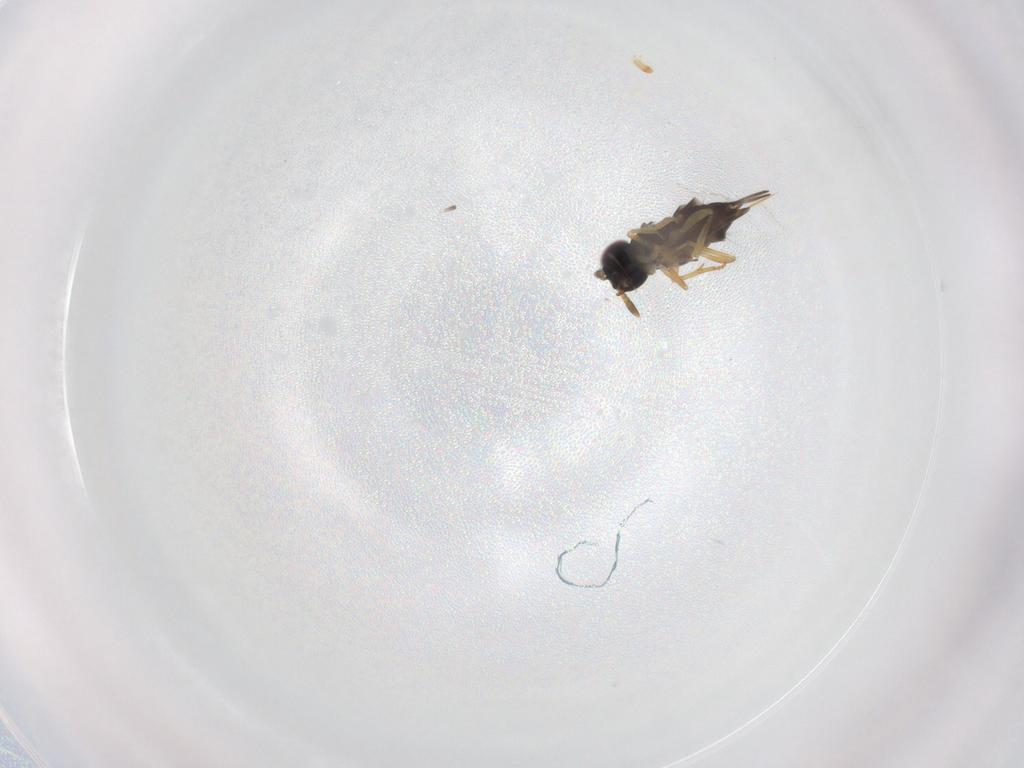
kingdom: Animalia
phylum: Arthropoda
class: Insecta
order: Hymenoptera
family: Encyrtidae
